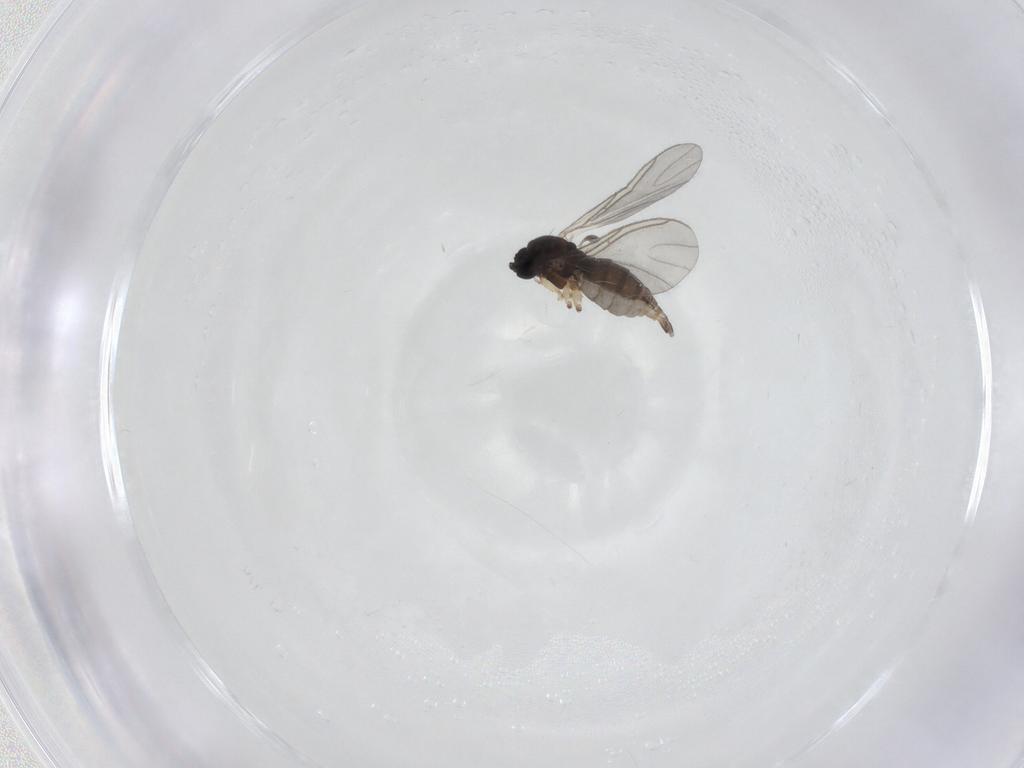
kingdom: Animalia
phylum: Arthropoda
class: Insecta
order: Diptera
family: Sciaridae
